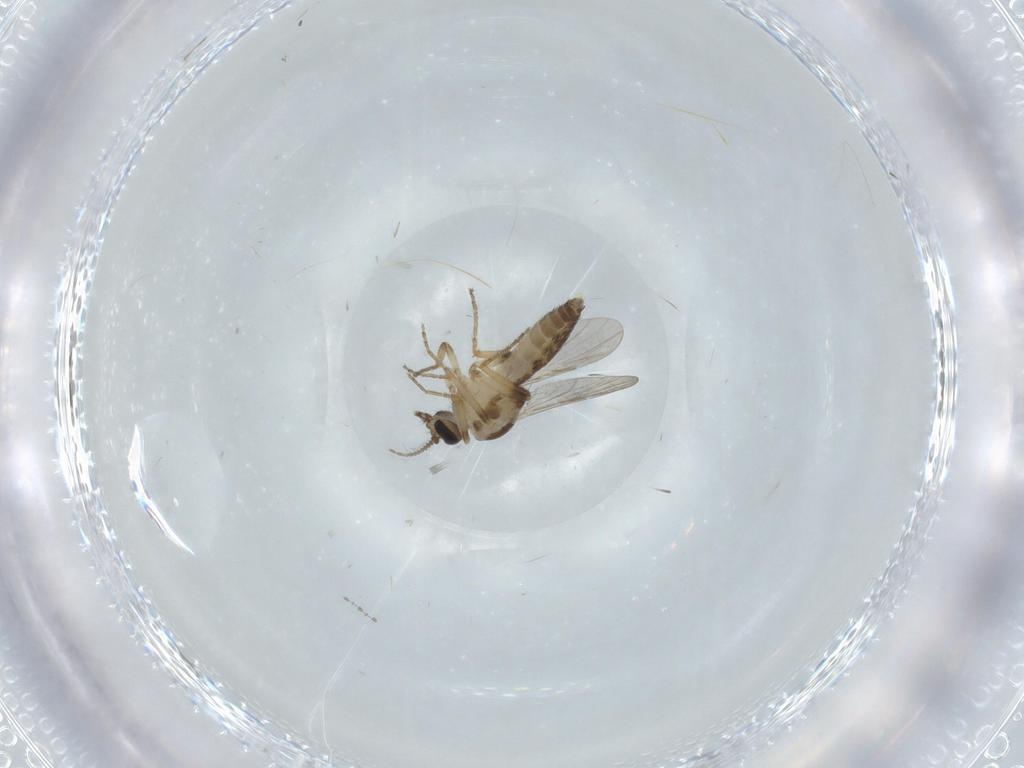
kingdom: Animalia
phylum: Arthropoda
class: Insecta
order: Diptera
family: Ceratopogonidae
